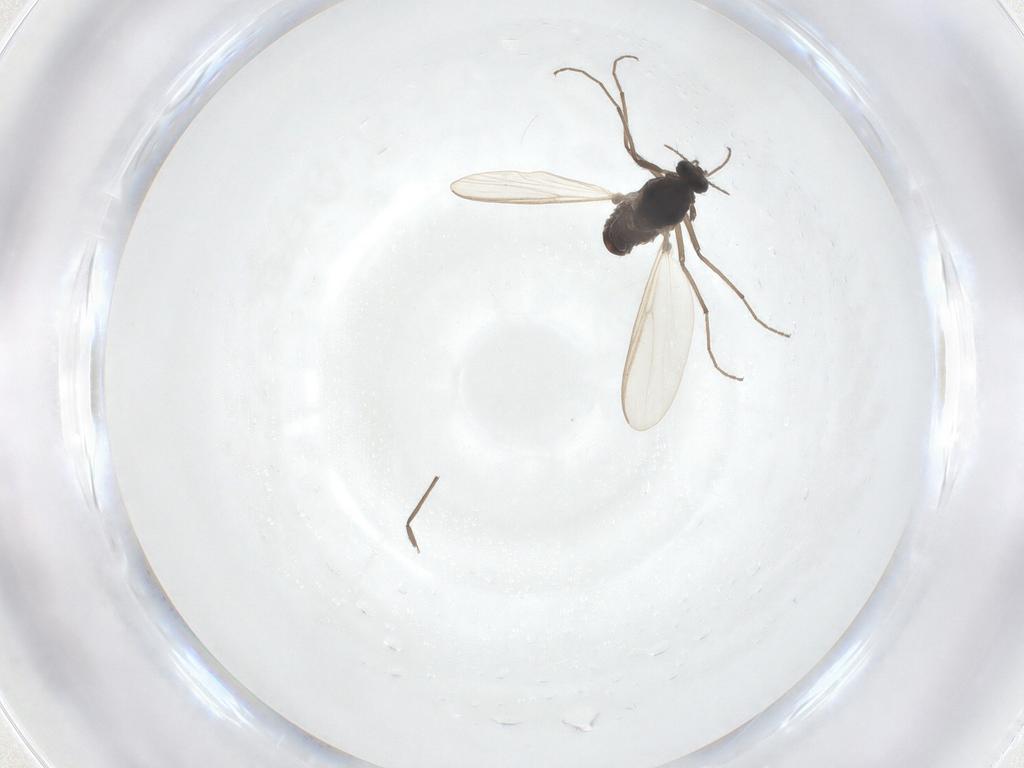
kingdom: Animalia
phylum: Arthropoda
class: Insecta
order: Diptera
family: Chironomidae
